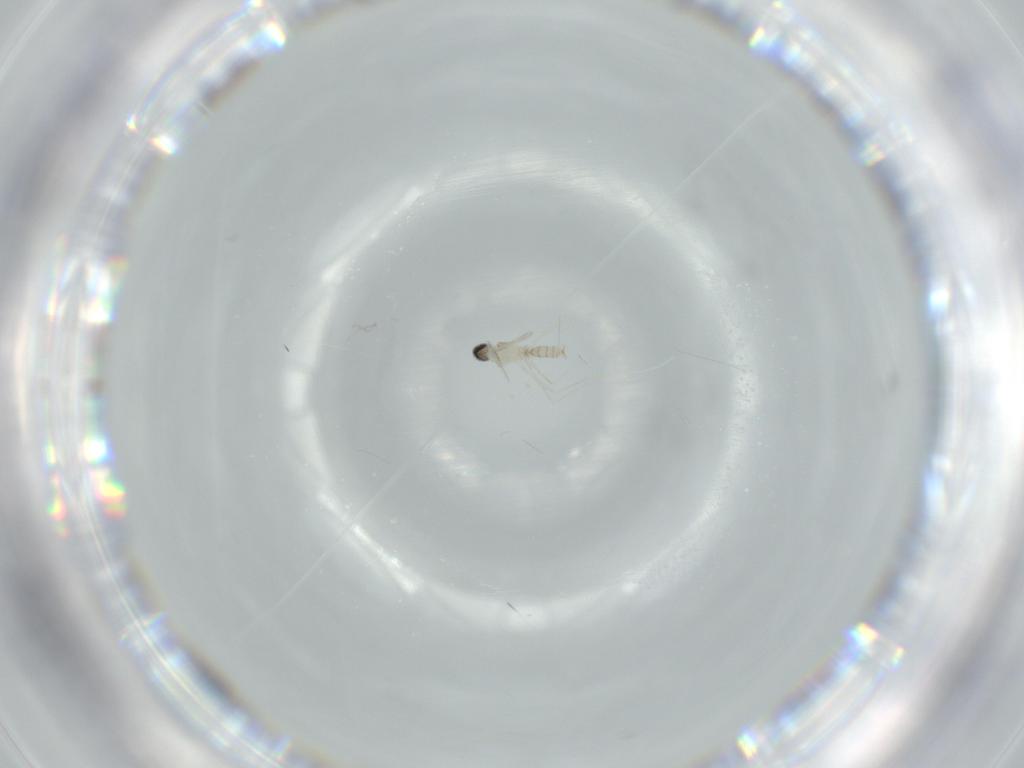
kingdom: Animalia
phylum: Arthropoda
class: Insecta
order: Diptera
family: Cecidomyiidae
